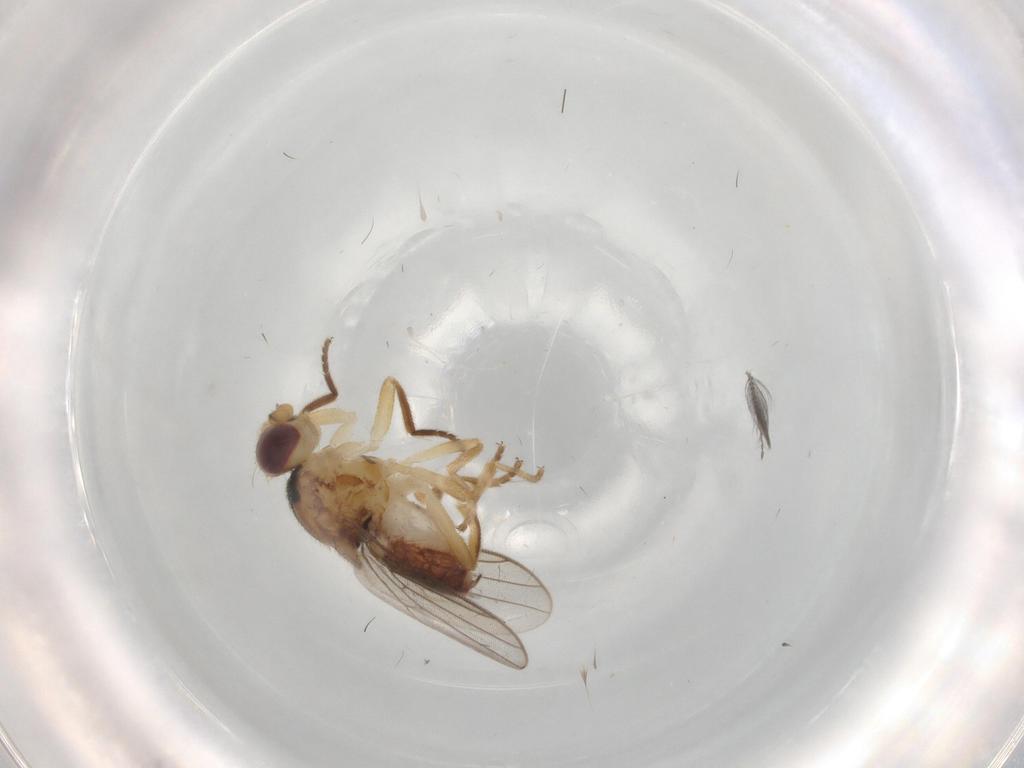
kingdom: Animalia
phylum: Arthropoda
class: Insecta
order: Diptera
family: Chloropidae
